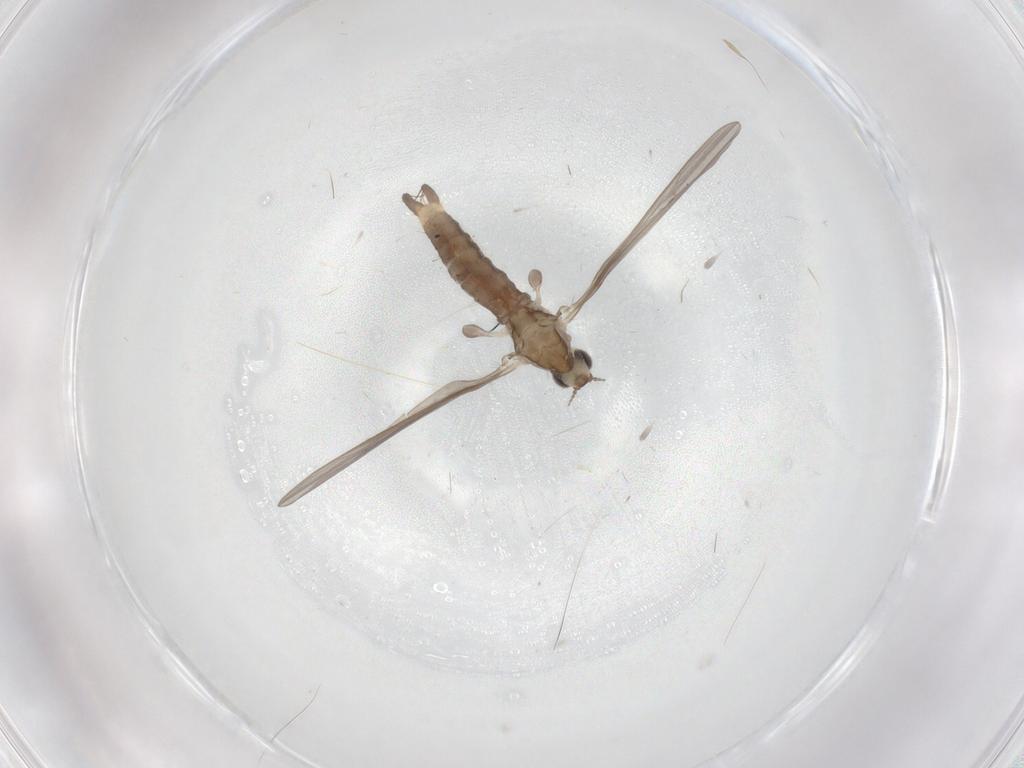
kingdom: Animalia
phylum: Arthropoda
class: Insecta
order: Diptera
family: Limoniidae
